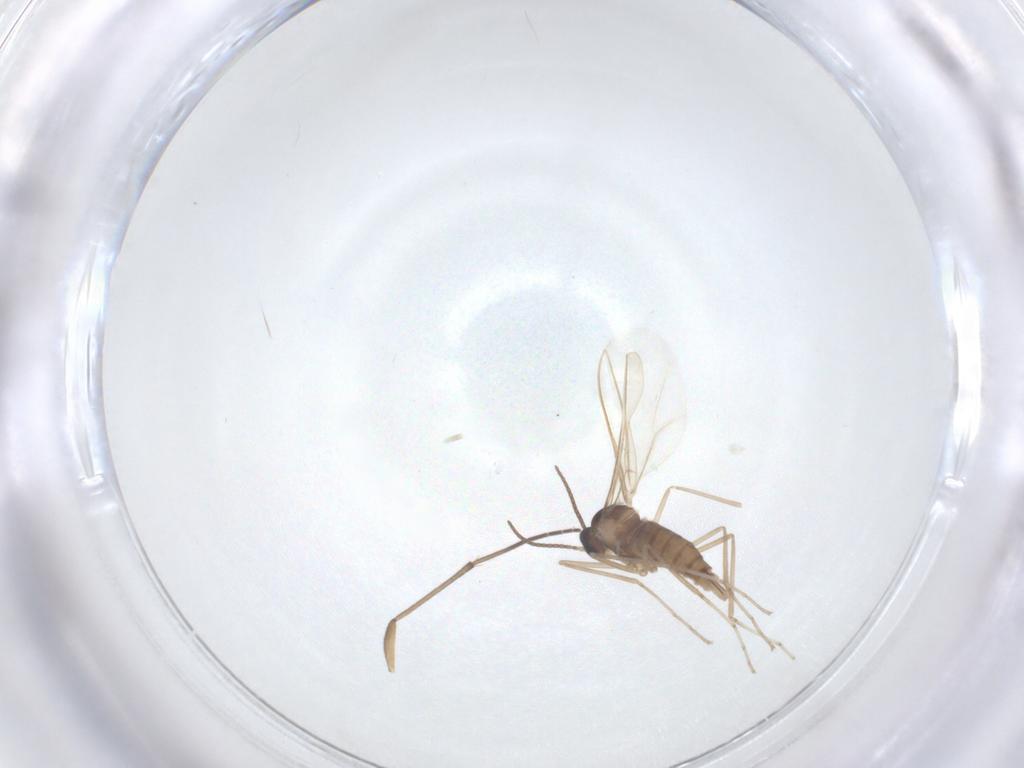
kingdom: Animalia
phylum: Arthropoda
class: Insecta
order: Diptera
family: Cecidomyiidae
